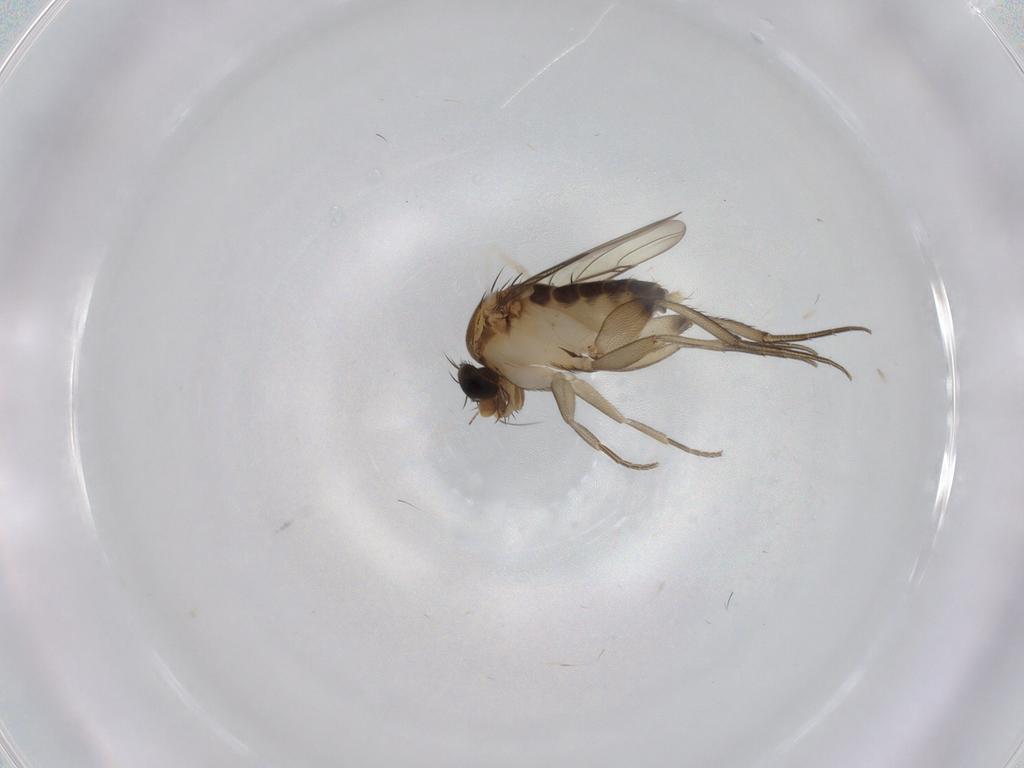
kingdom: Animalia
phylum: Arthropoda
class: Insecta
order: Diptera
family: Phoridae
